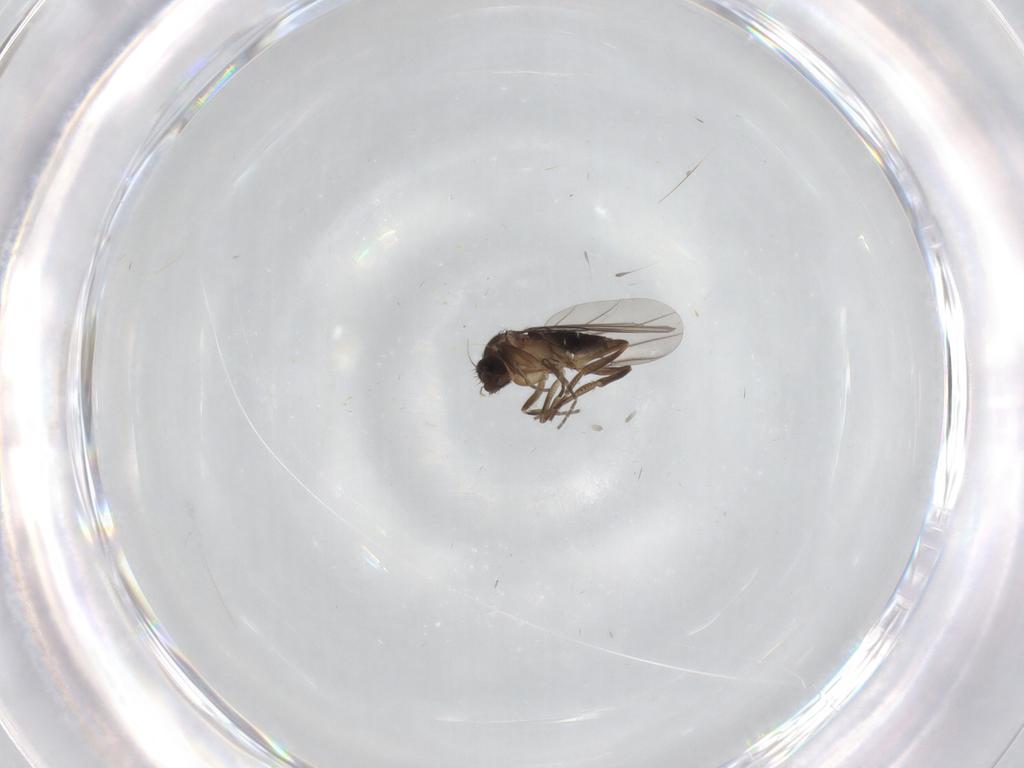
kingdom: Animalia
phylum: Arthropoda
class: Insecta
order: Diptera
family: Phoridae
